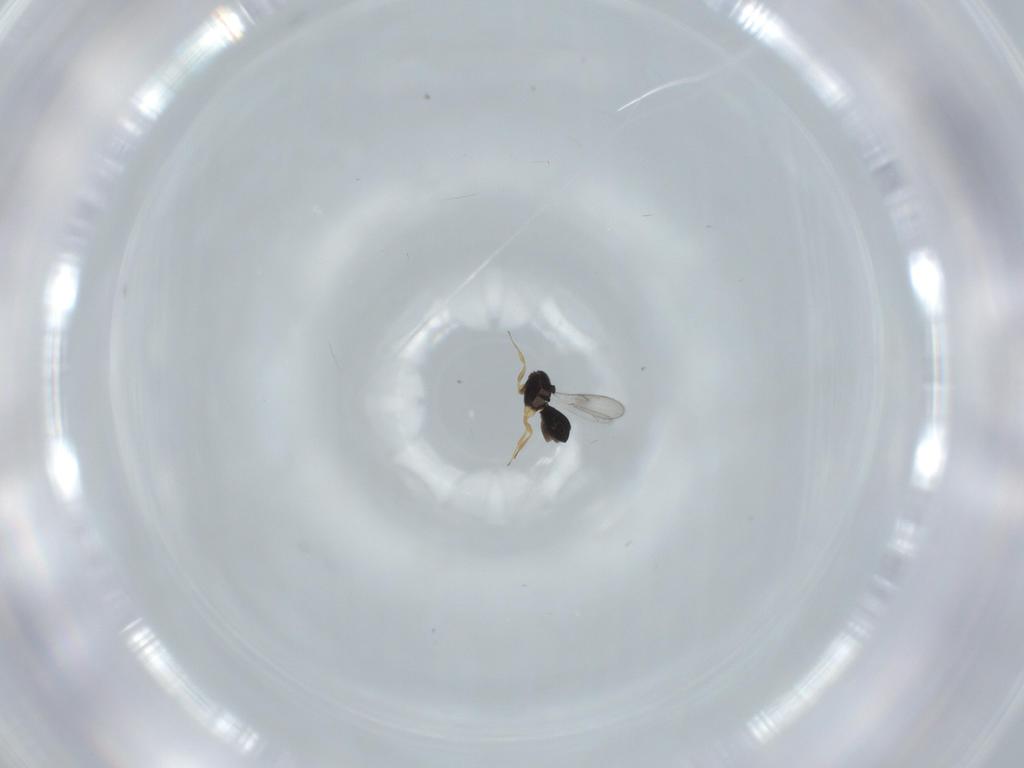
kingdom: Animalia
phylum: Arthropoda
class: Insecta
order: Hymenoptera
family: Scelionidae
